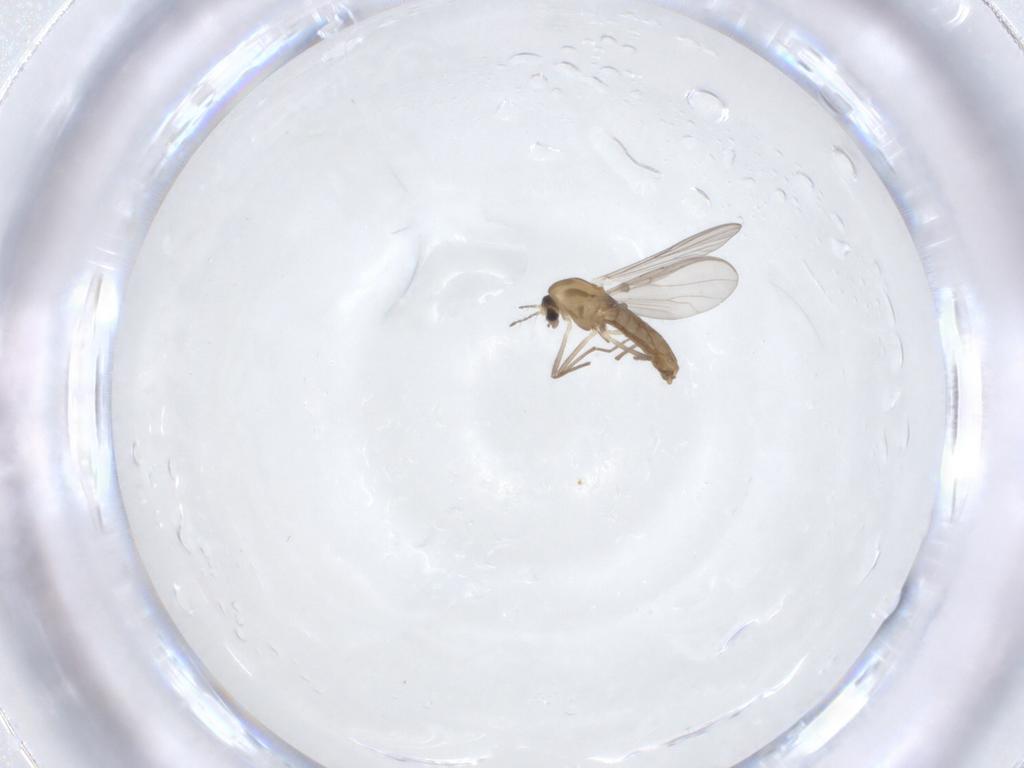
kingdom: Animalia
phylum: Arthropoda
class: Insecta
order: Diptera
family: Chironomidae
